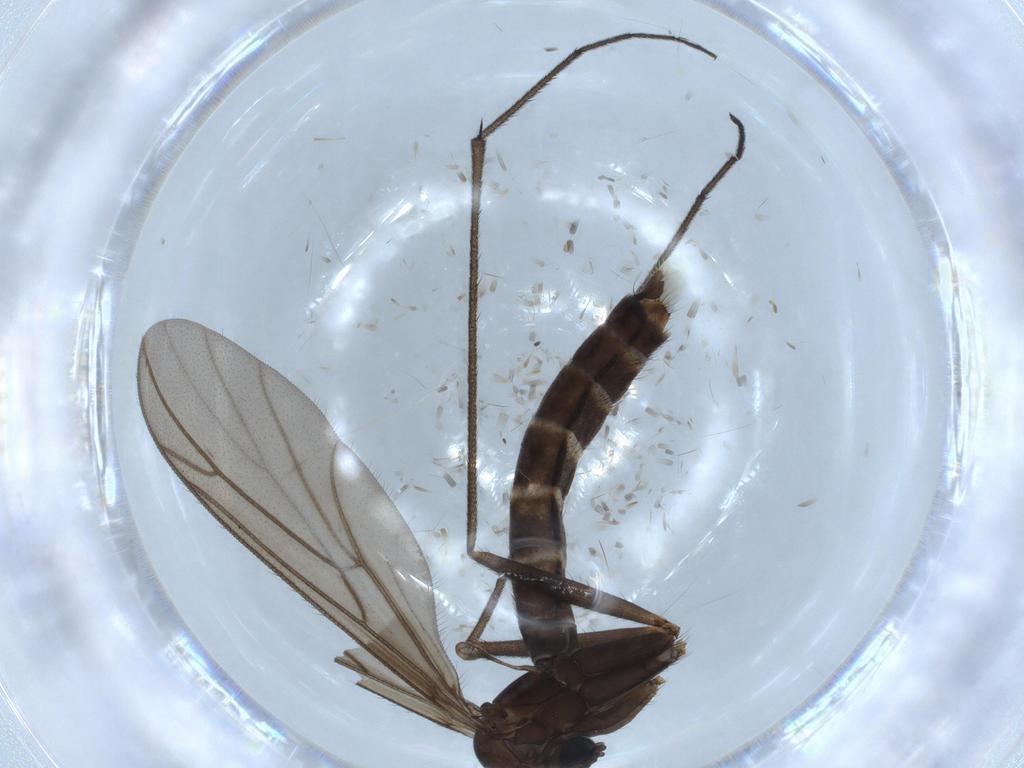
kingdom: Animalia
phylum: Arthropoda
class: Insecta
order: Diptera
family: Ditomyiidae
